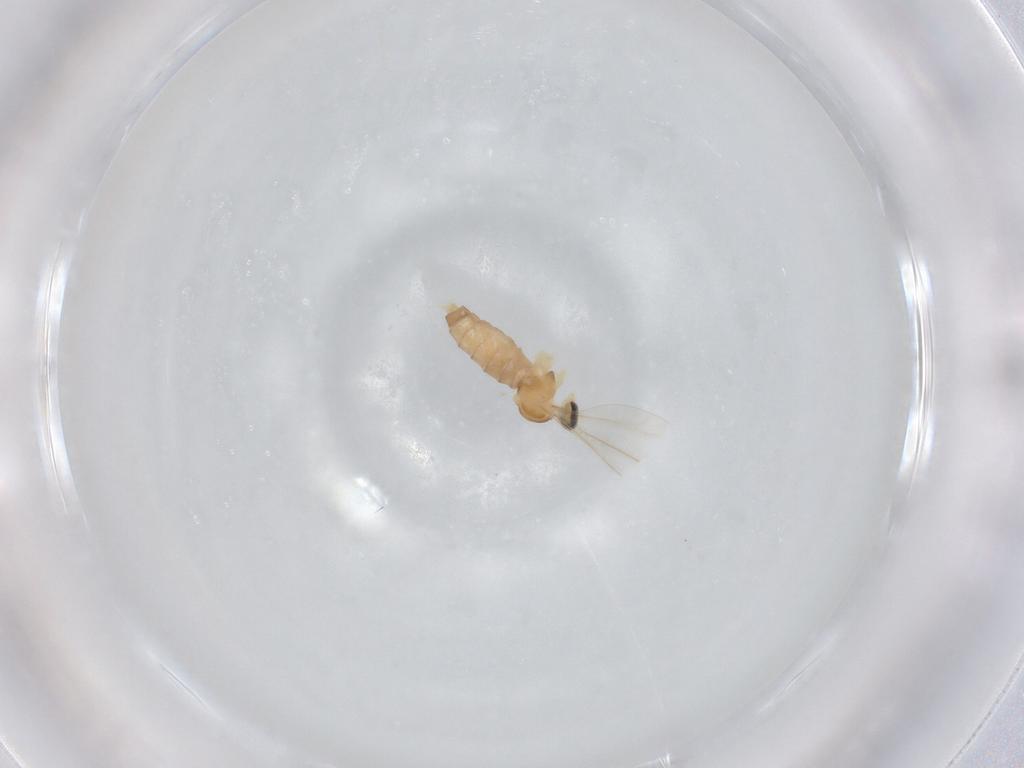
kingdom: Animalia
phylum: Arthropoda
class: Insecta
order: Diptera
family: Cecidomyiidae
